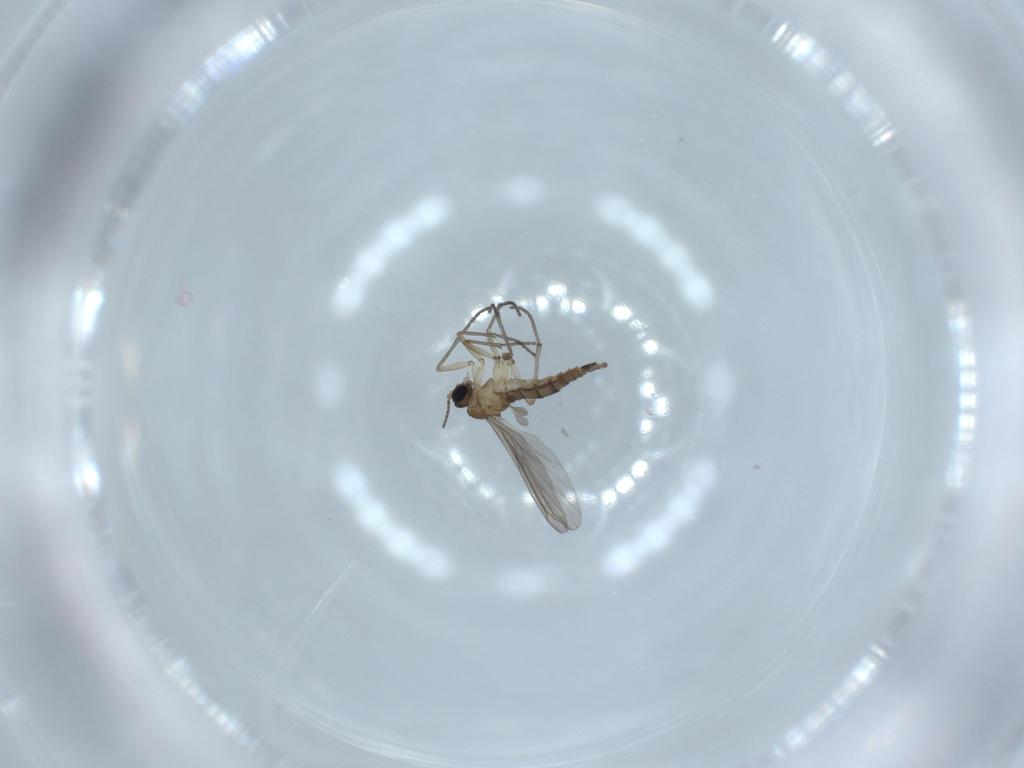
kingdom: Animalia
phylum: Arthropoda
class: Insecta
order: Diptera
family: Sciaridae
